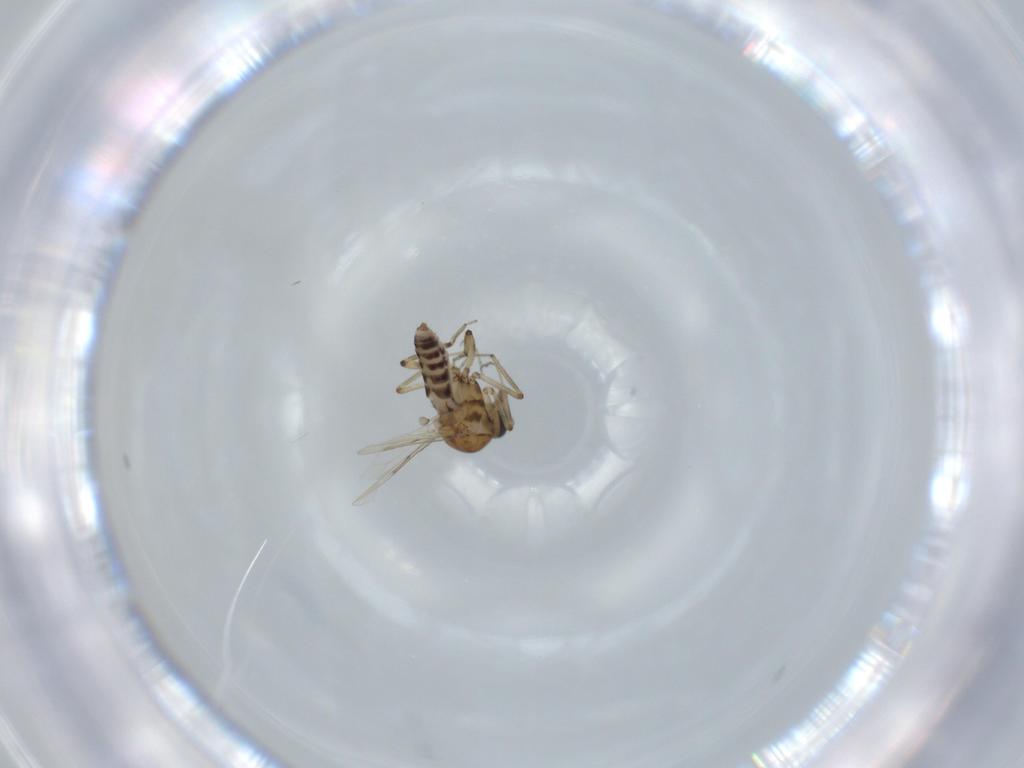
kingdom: Animalia
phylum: Arthropoda
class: Insecta
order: Diptera
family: Ceratopogonidae
